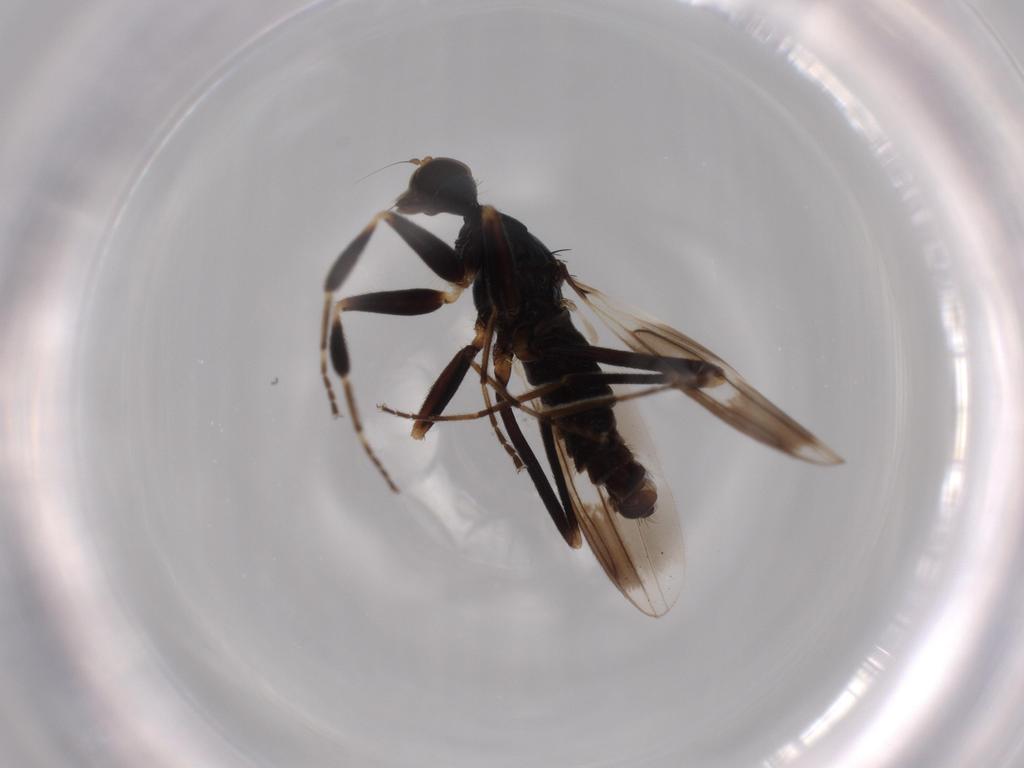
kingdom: Animalia
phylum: Arthropoda
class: Insecta
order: Diptera
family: Hybotidae
